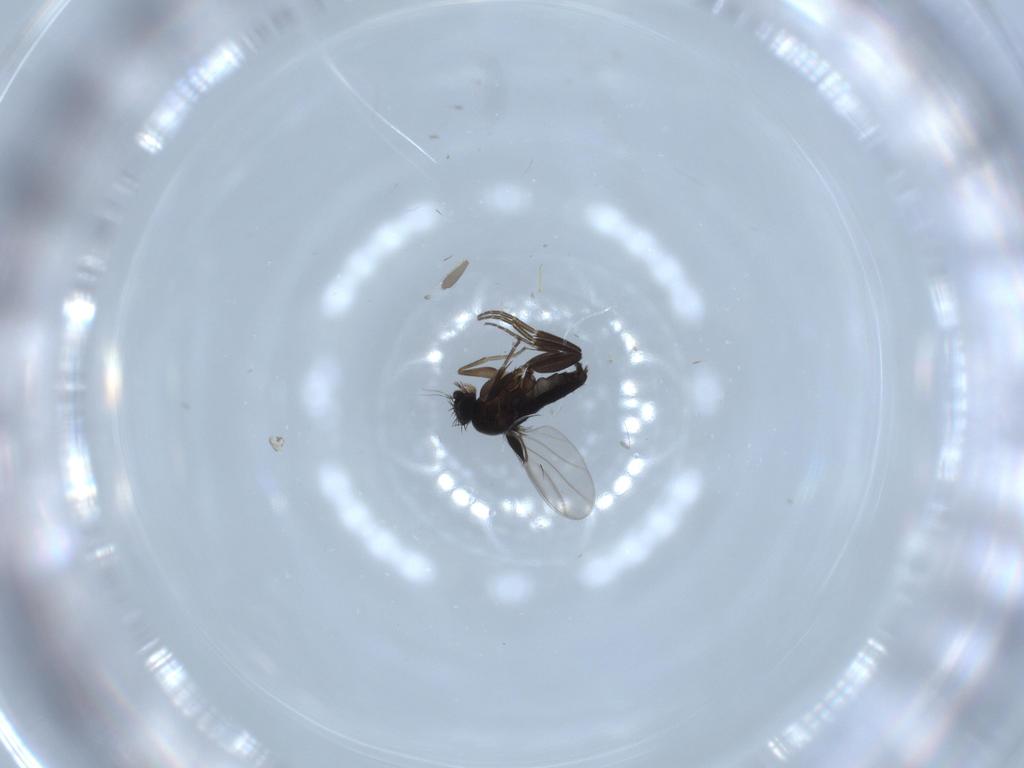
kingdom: Animalia
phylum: Arthropoda
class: Insecta
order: Diptera
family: Phoridae
